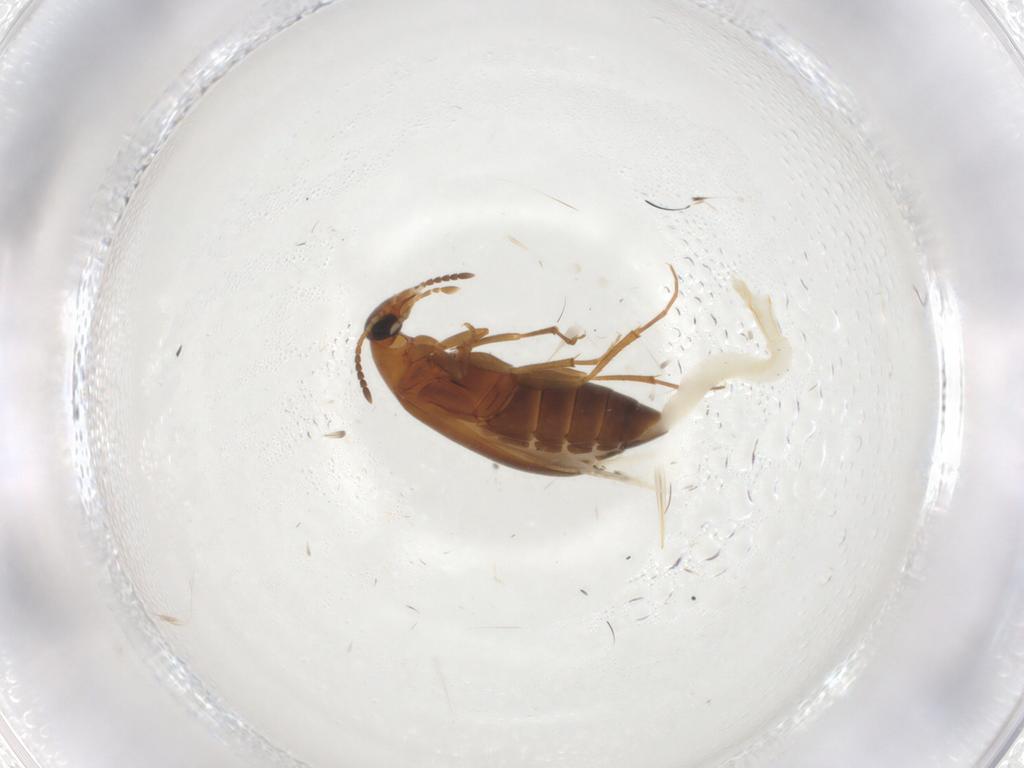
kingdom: Animalia
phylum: Arthropoda
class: Insecta
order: Coleoptera
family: Scraptiidae
